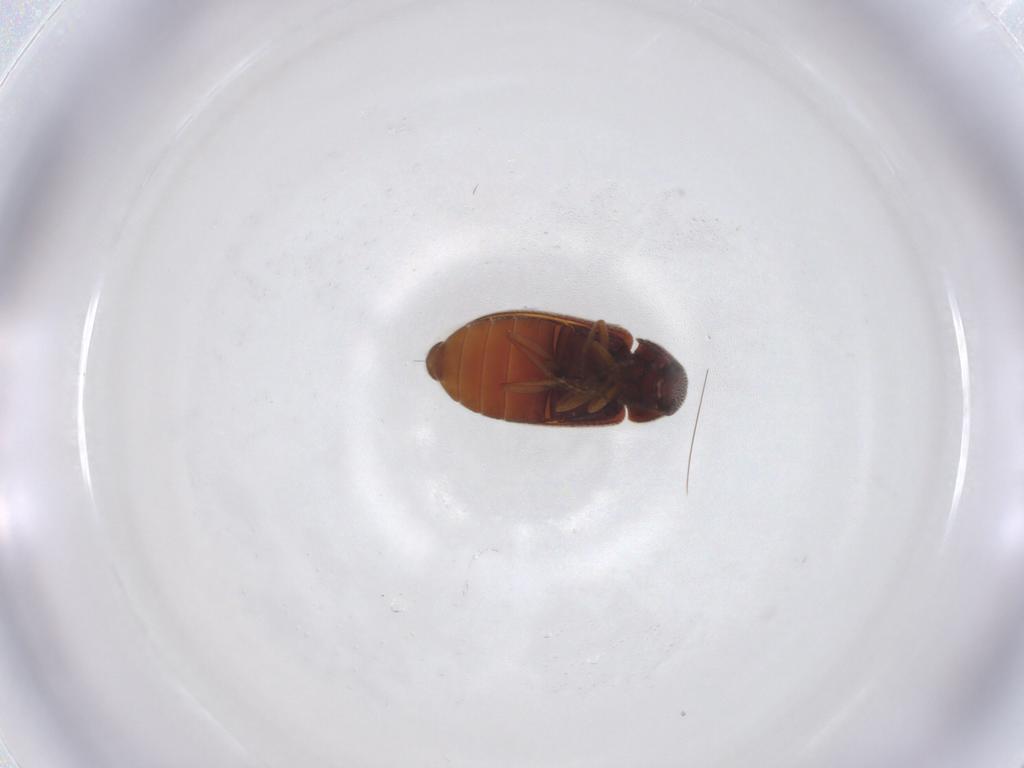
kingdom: Animalia
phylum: Arthropoda
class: Insecta
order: Coleoptera
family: Rhadalidae
